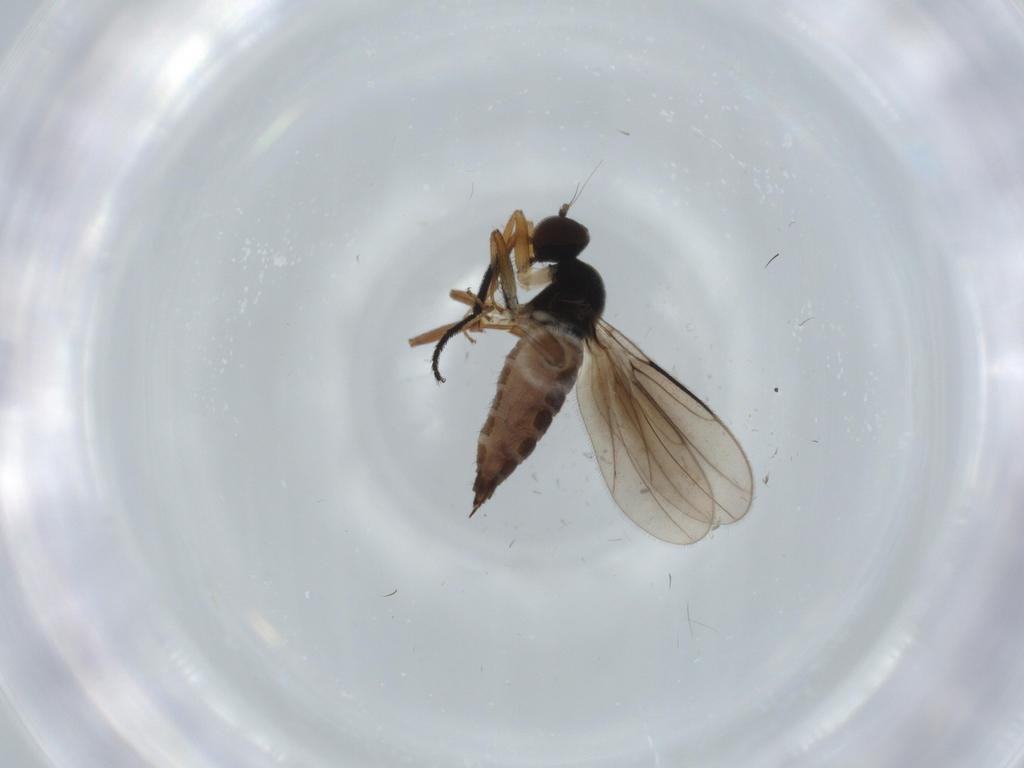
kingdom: Animalia
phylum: Arthropoda
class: Insecta
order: Diptera
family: Hybotidae
